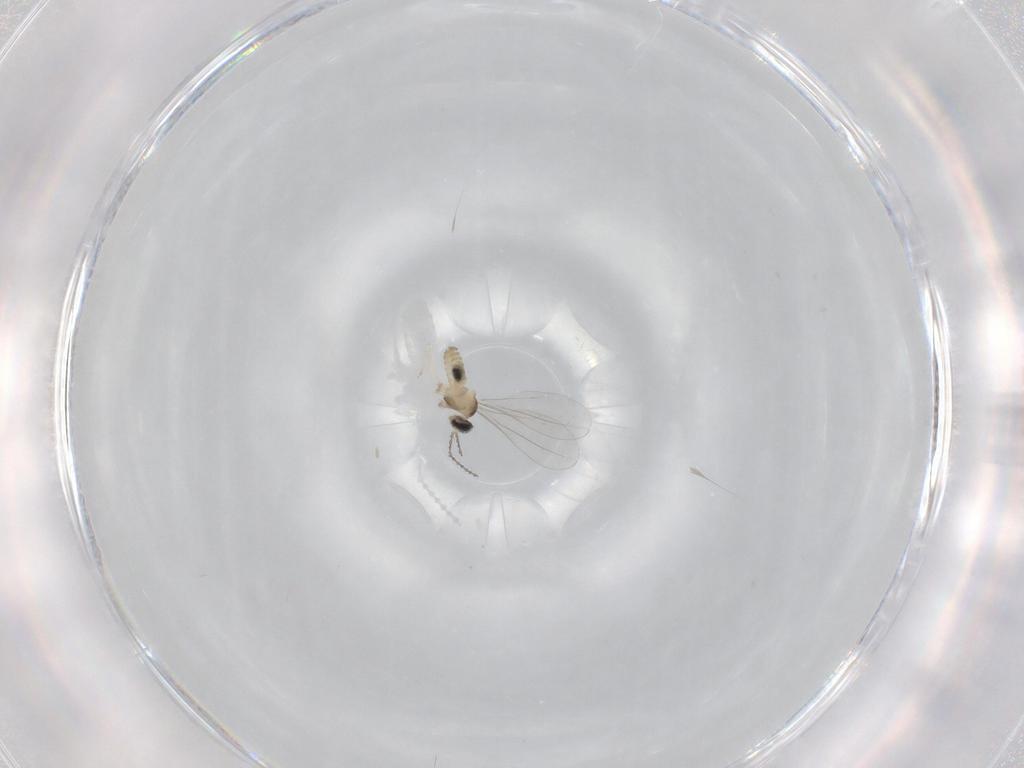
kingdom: Animalia
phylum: Arthropoda
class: Insecta
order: Diptera
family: Cecidomyiidae
